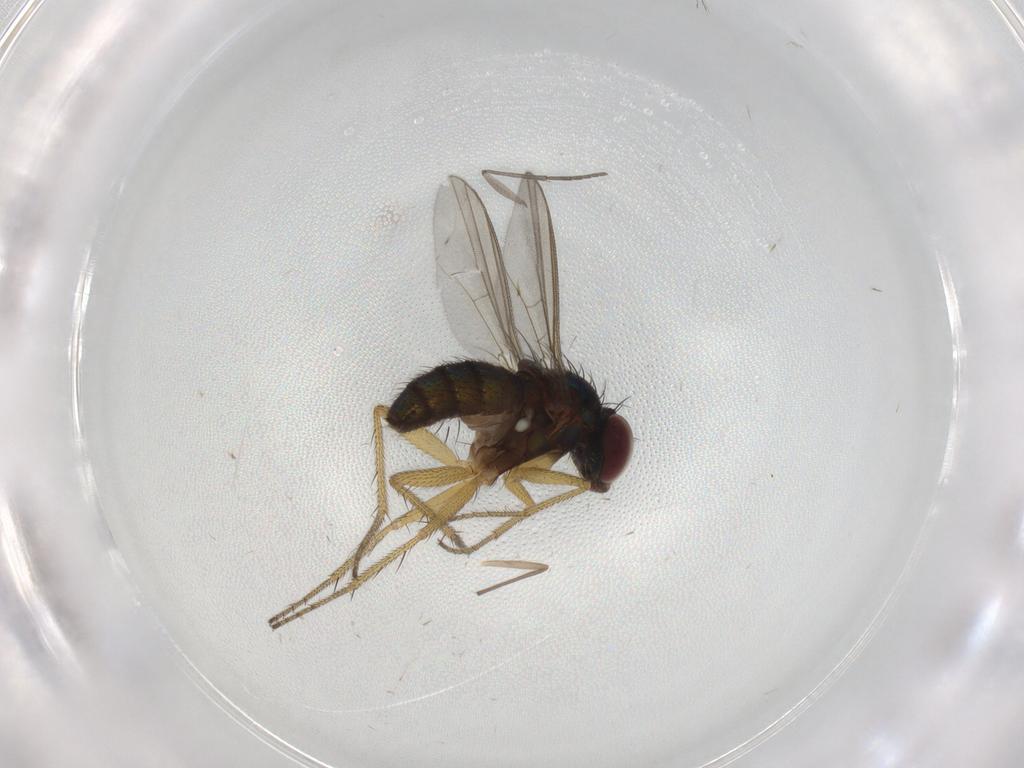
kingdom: Animalia
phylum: Arthropoda
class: Insecta
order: Diptera
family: Chironomidae
